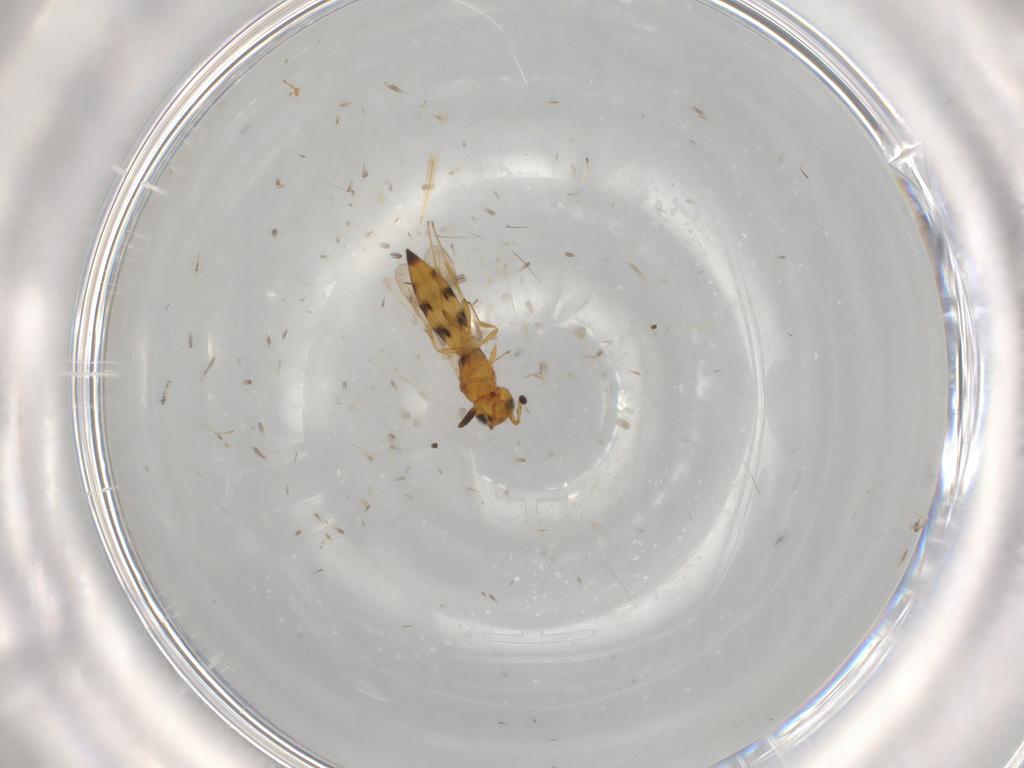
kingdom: Animalia
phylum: Arthropoda
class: Insecta
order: Hymenoptera
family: Scelionidae
